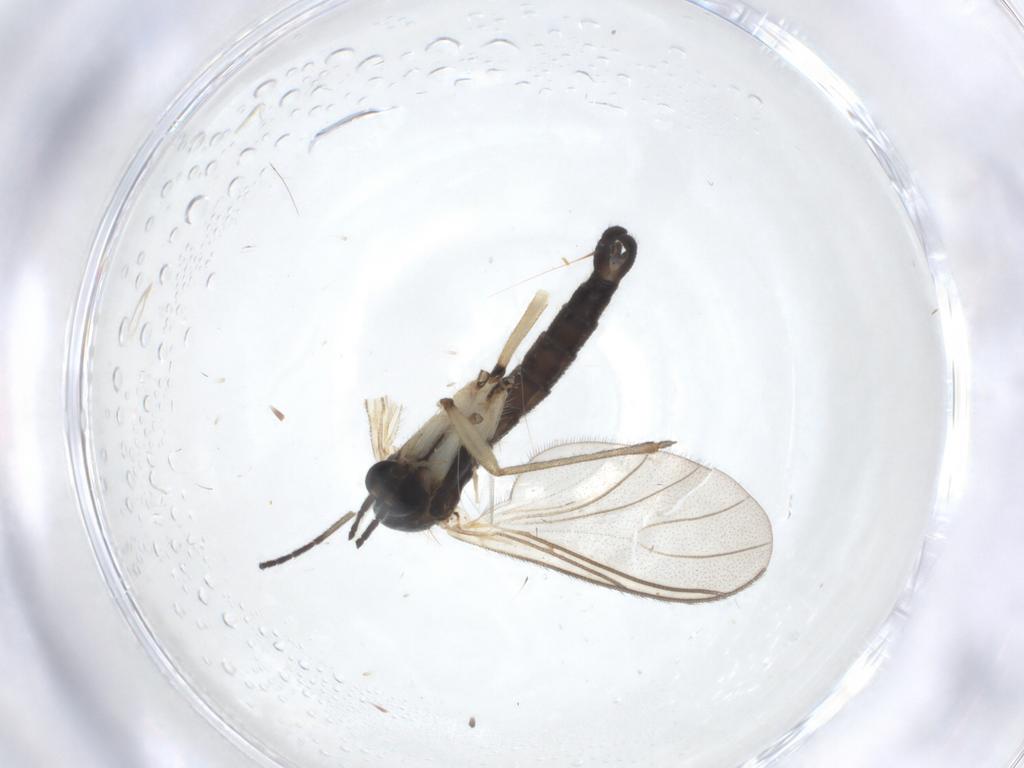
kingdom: Animalia
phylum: Arthropoda
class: Insecta
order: Diptera
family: Sciaridae
